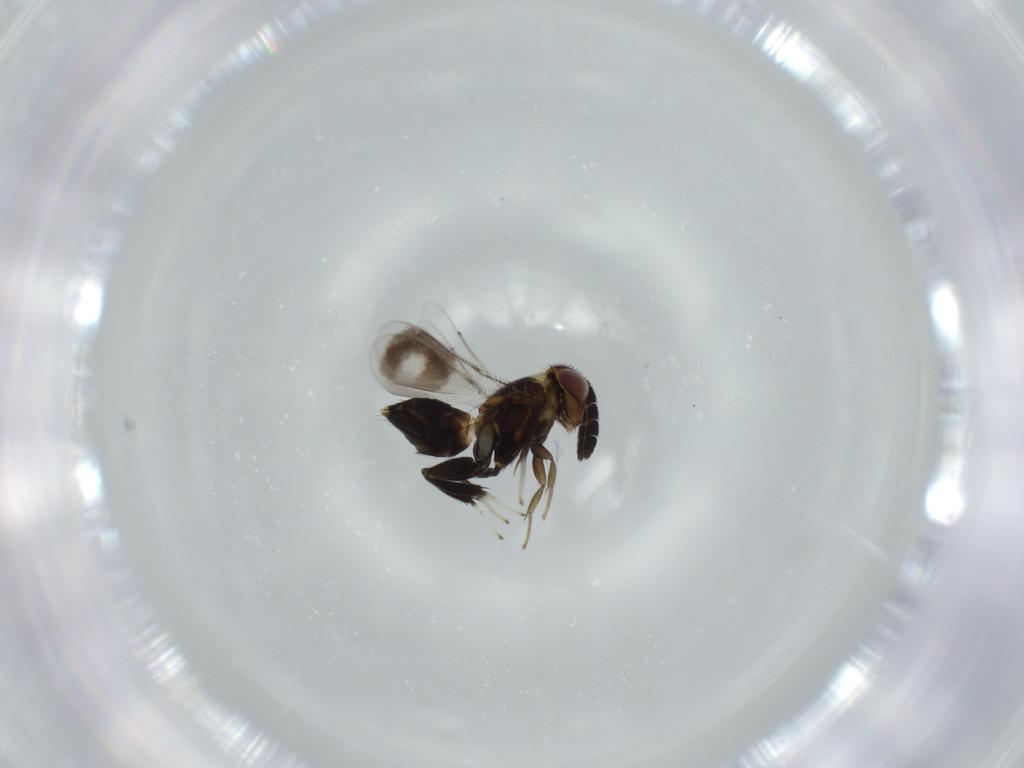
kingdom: Animalia
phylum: Arthropoda
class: Insecta
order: Hymenoptera
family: Aphelinidae
